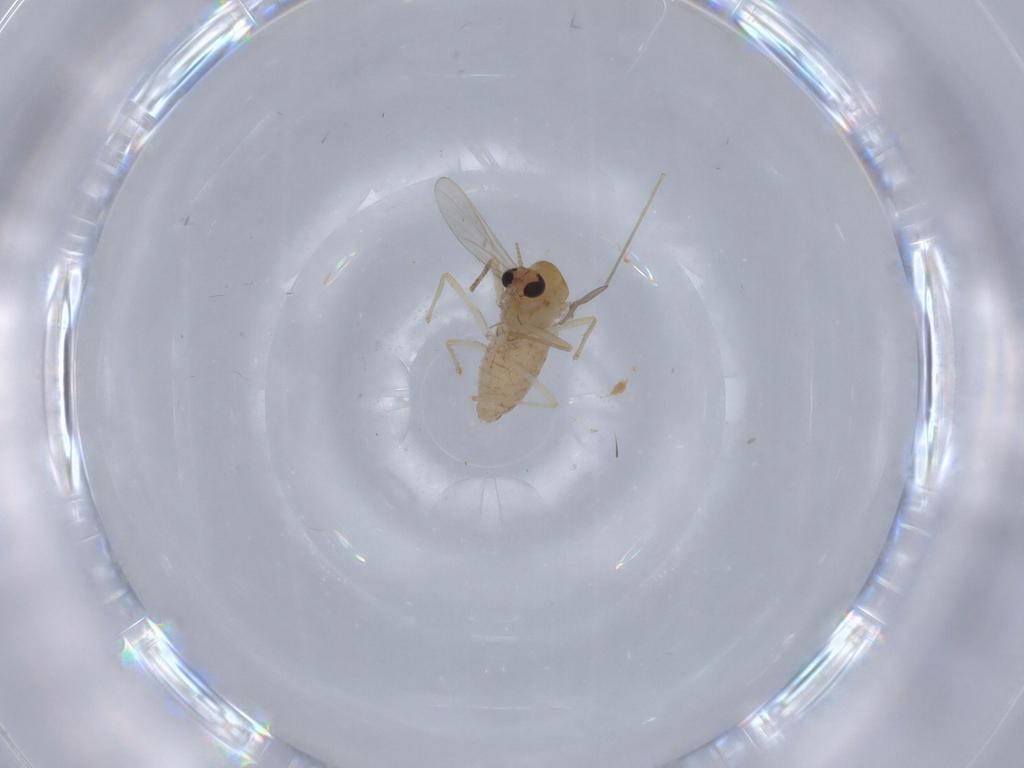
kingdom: Animalia
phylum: Arthropoda
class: Insecta
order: Diptera
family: Chironomidae
